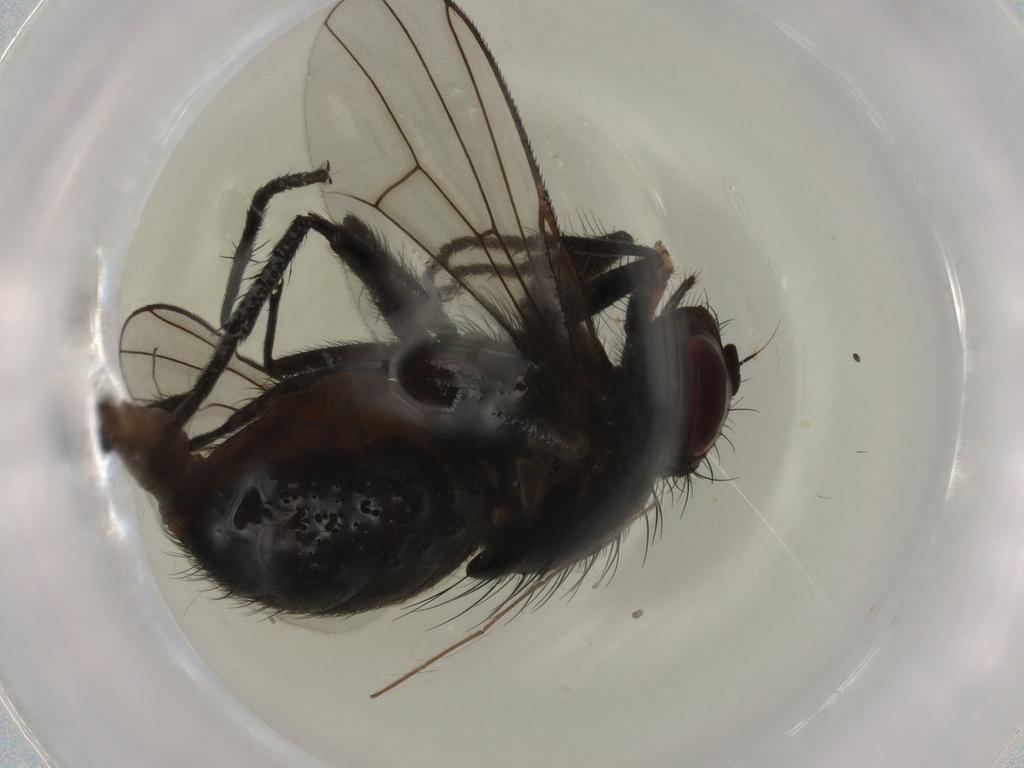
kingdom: Animalia
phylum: Arthropoda
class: Insecta
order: Diptera
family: Muscidae
